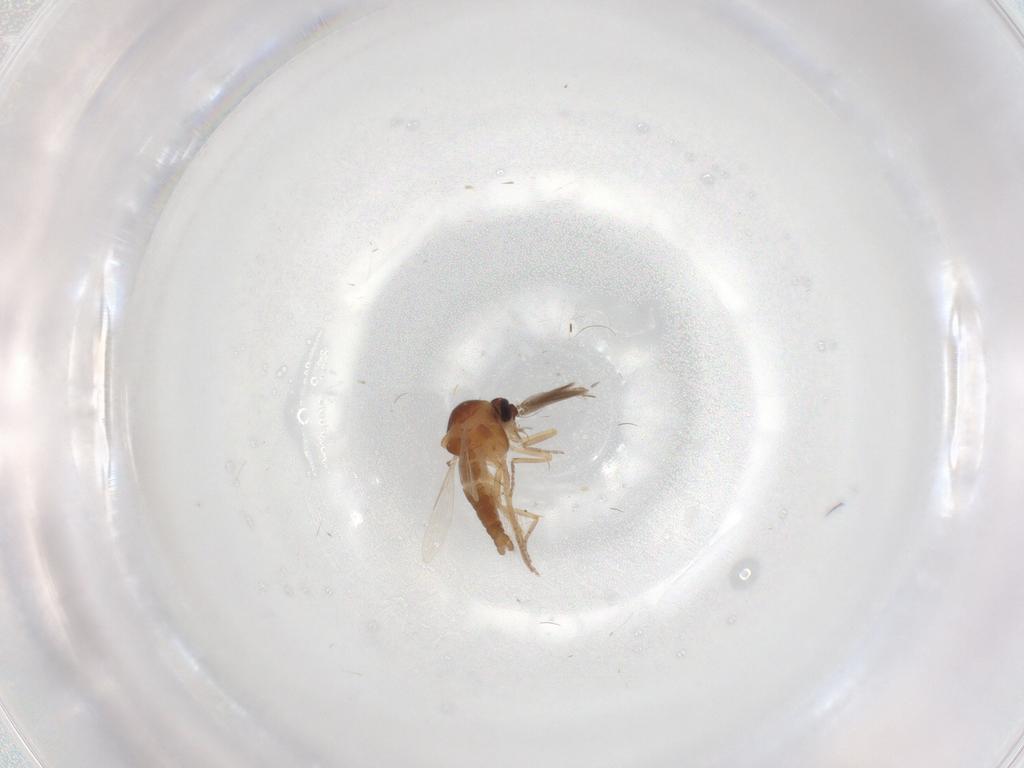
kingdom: Animalia
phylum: Arthropoda
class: Insecta
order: Diptera
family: Ceratopogonidae
